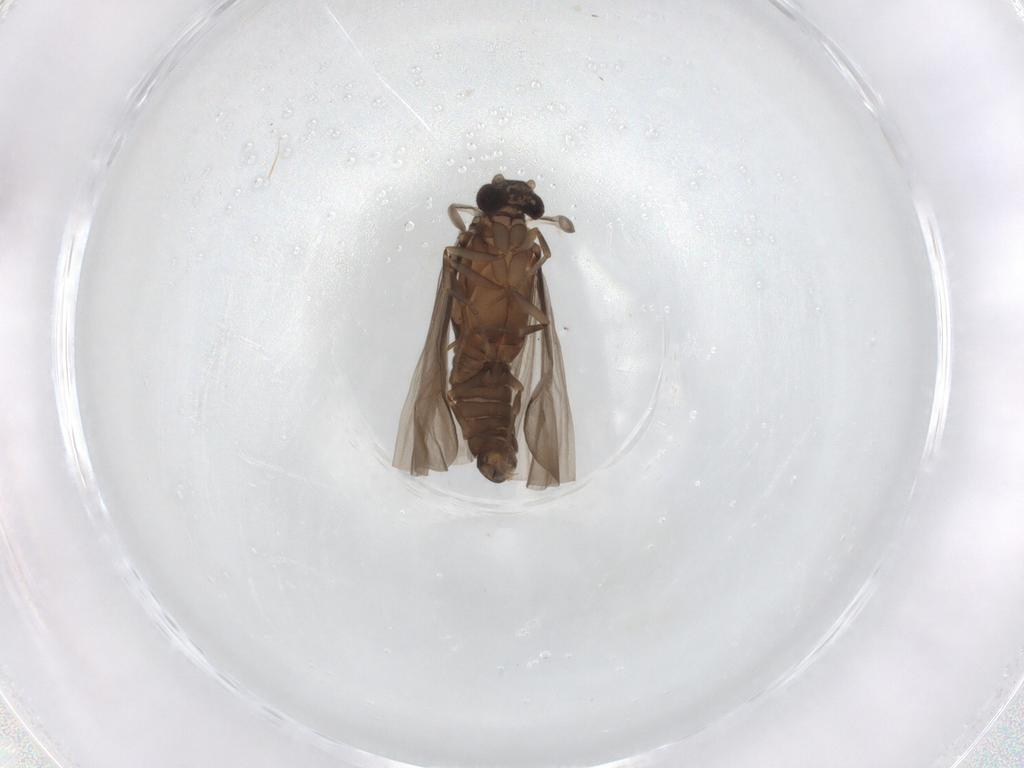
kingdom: Animalia
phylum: Arthropoda
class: Insecta
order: Strepsiptera
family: Mengenillidae
